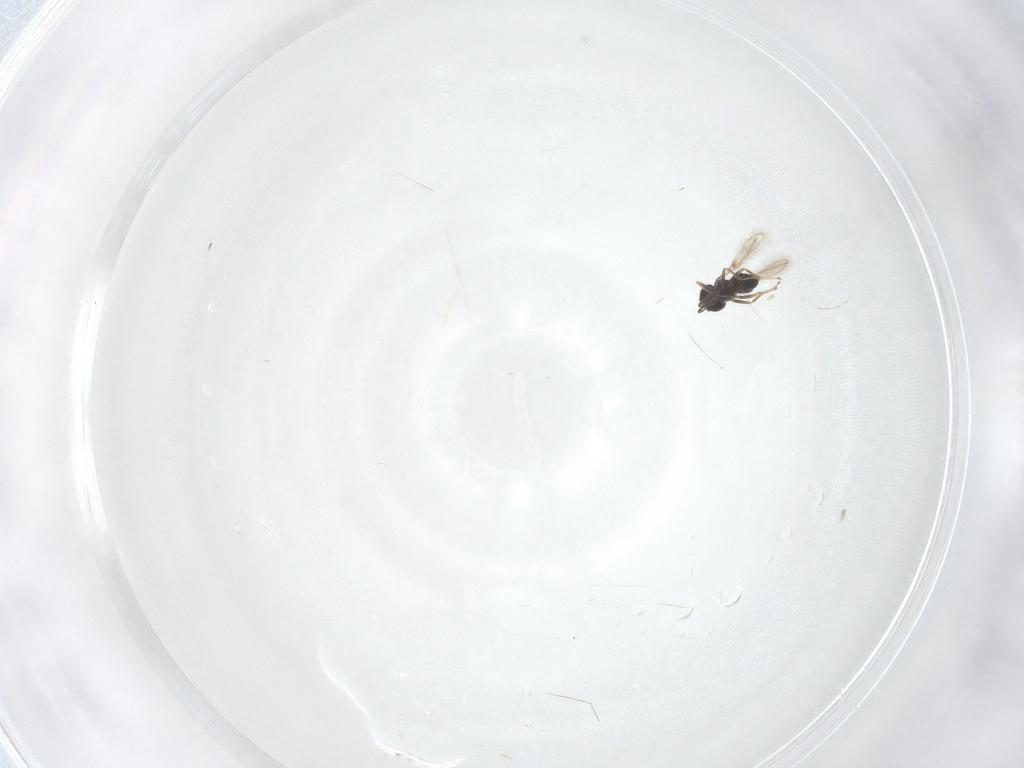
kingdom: Animalia
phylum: Arthropoda
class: Insecta
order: Hymenoptera
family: Mymaridae
